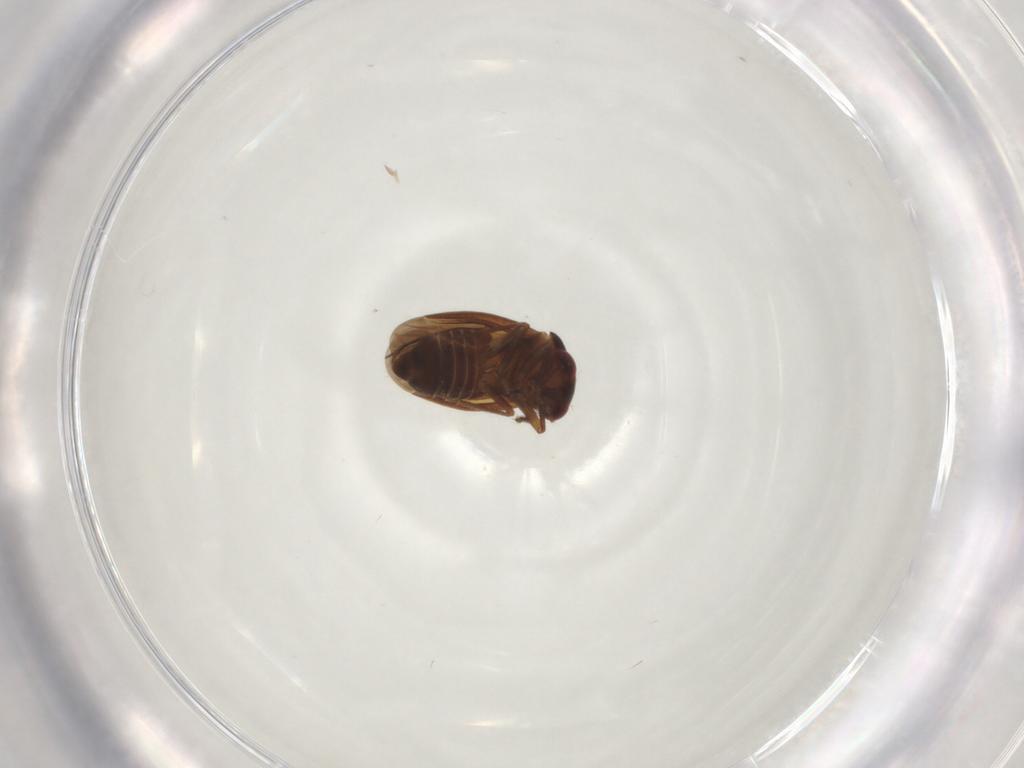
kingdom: Animalia
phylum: Arthropoda
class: Insecta
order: Hemiptera
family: Schizopteridae
